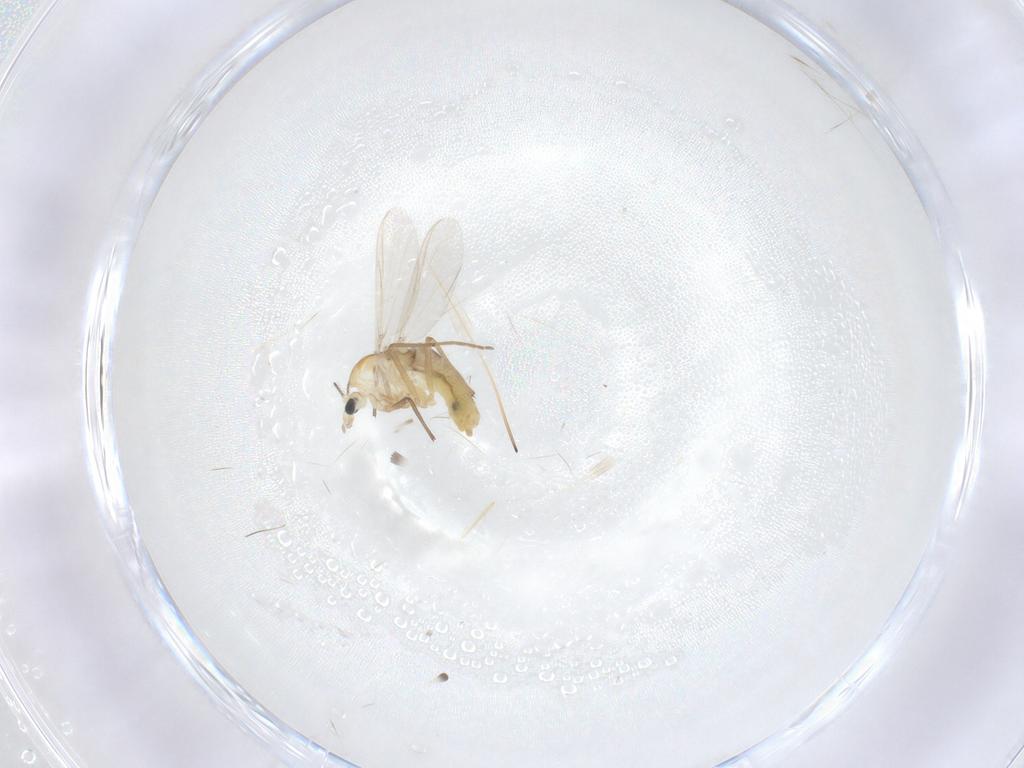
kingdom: Animalia
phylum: Arthropoda
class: Insecta
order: Diptera
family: Chironomidae
